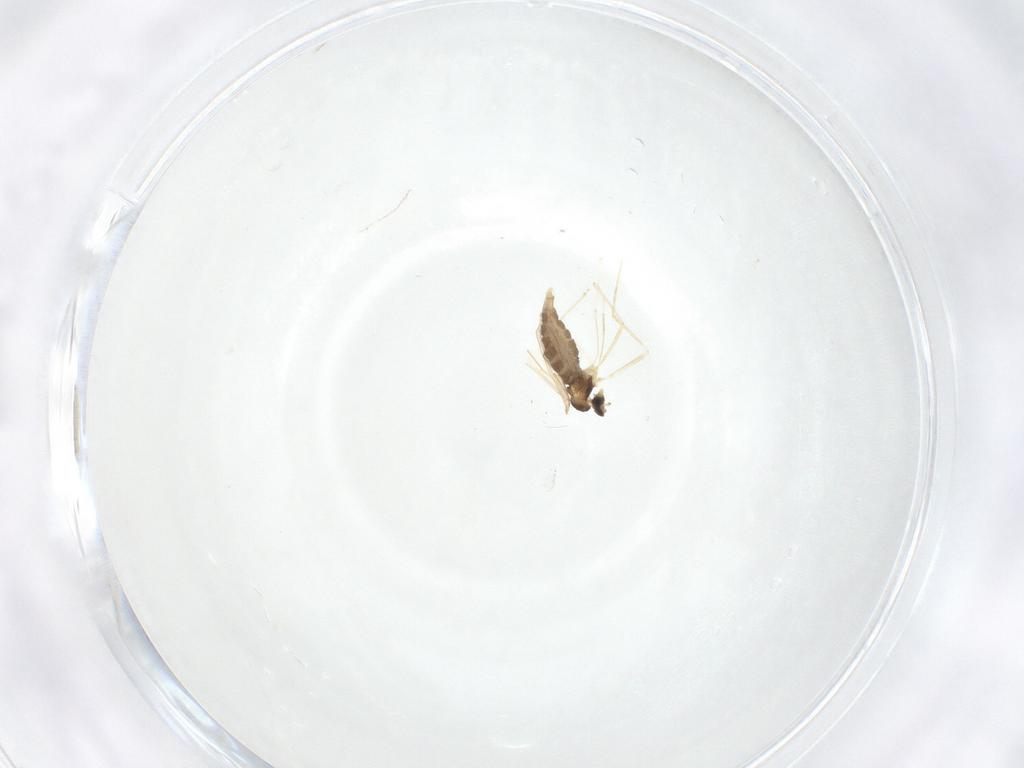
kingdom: Animalia
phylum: Arthropoda
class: Insecta
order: Diptera
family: Cecidomyiidae
